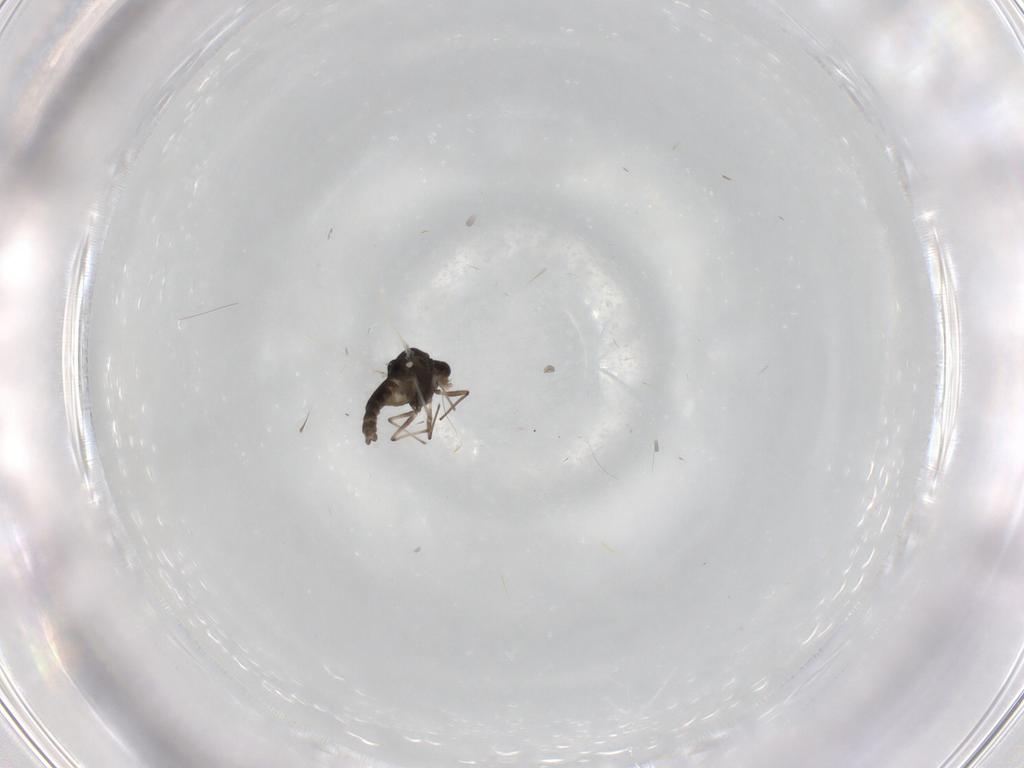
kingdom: Animalia
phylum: Arthropoda
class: Insecta
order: Diptera
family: Chironomidae
